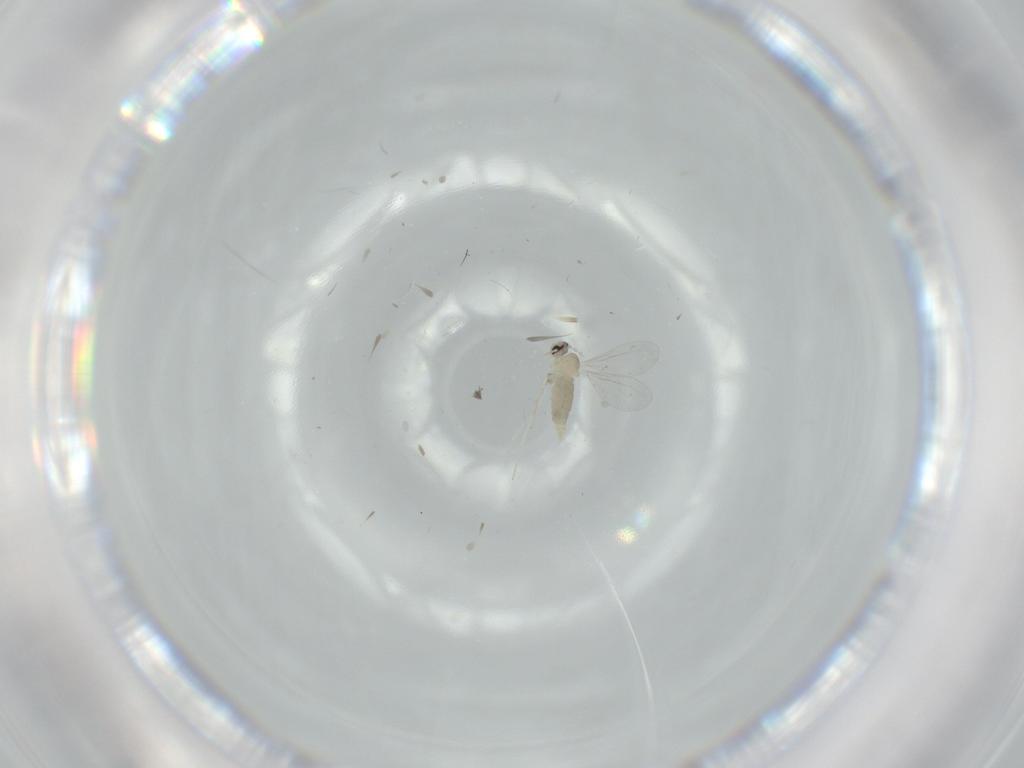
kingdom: Animalia
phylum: Arthropoda
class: Insecta
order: Diptera
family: Cecidomyiidae
